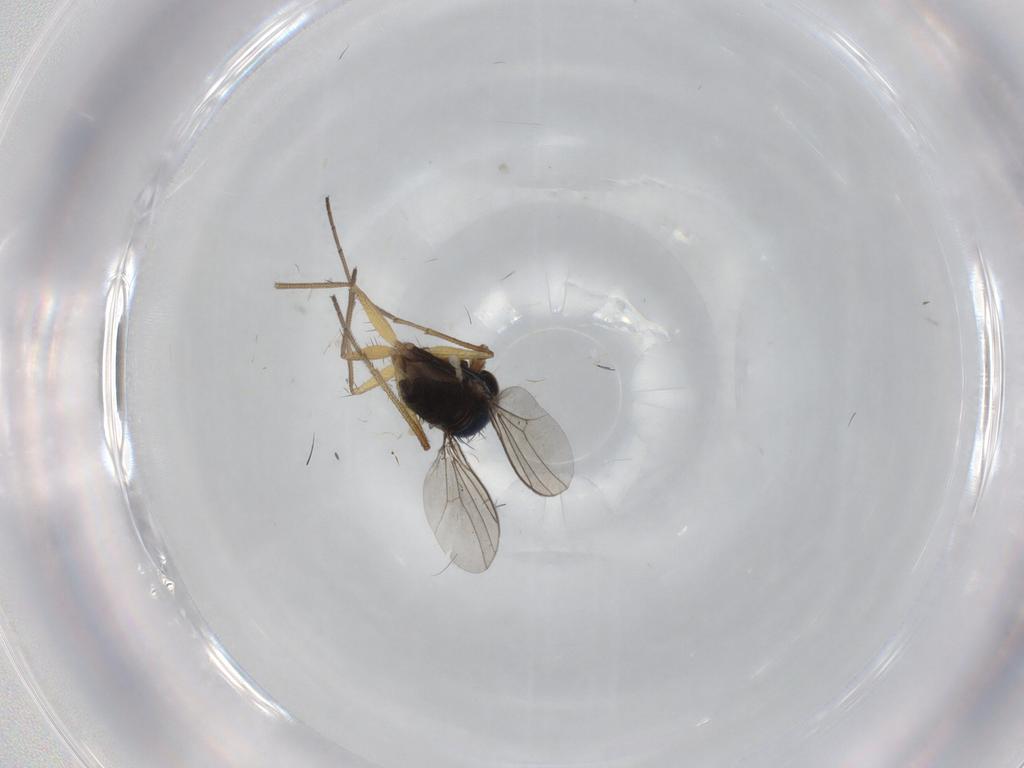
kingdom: Animalia
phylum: Arthropoda
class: Insecta
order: Diptera
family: Dolichopodidae
